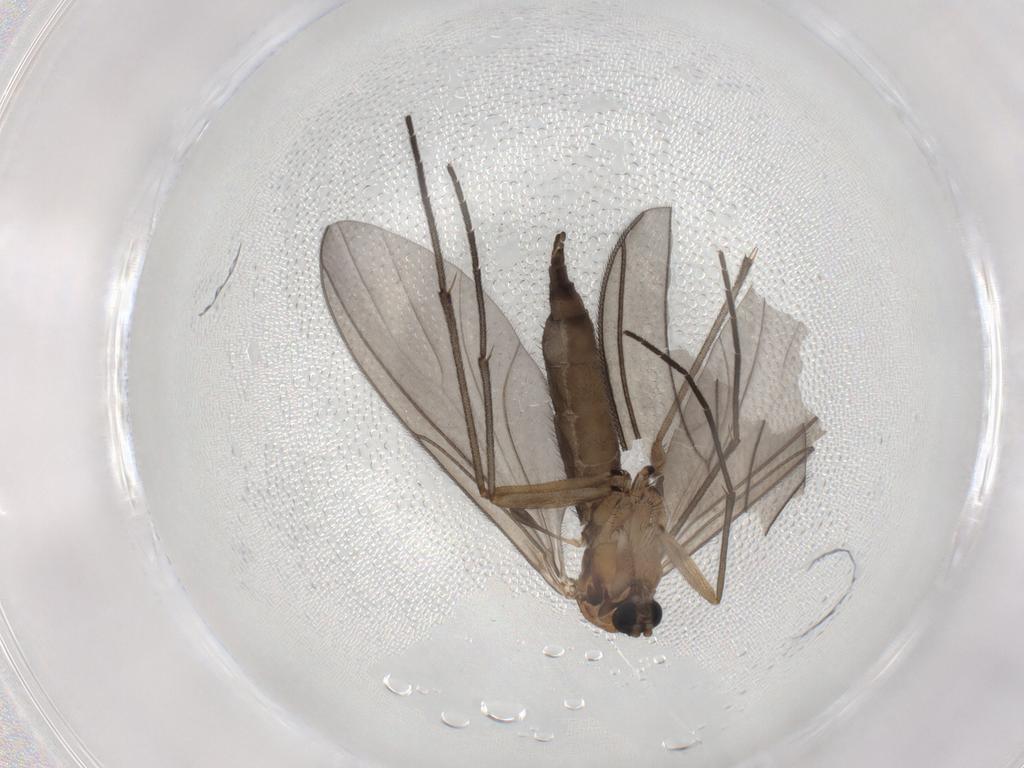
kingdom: Animalia
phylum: Arthropoda
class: Insecta
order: Diptera
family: Sciaridae
